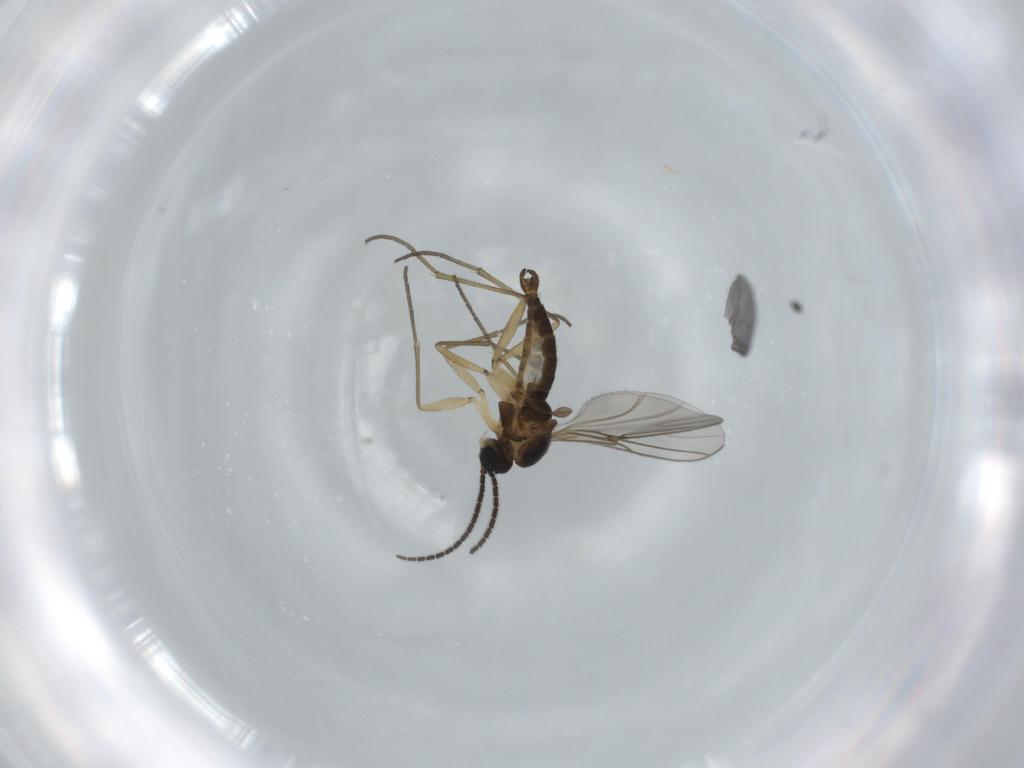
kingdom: Animalia
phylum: Arthropoda
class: Insecta
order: Diptera
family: Sciaridae
